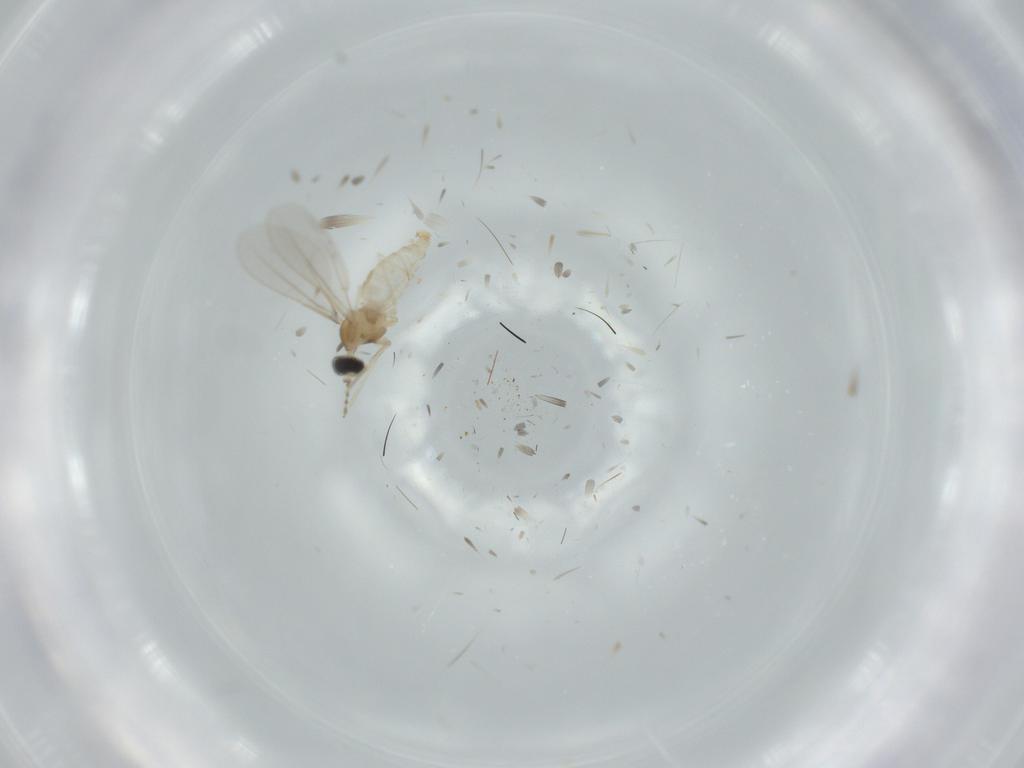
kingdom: Animalia
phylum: Arthropoda
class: Insecta
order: Diptera
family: Cecidomyiidae
